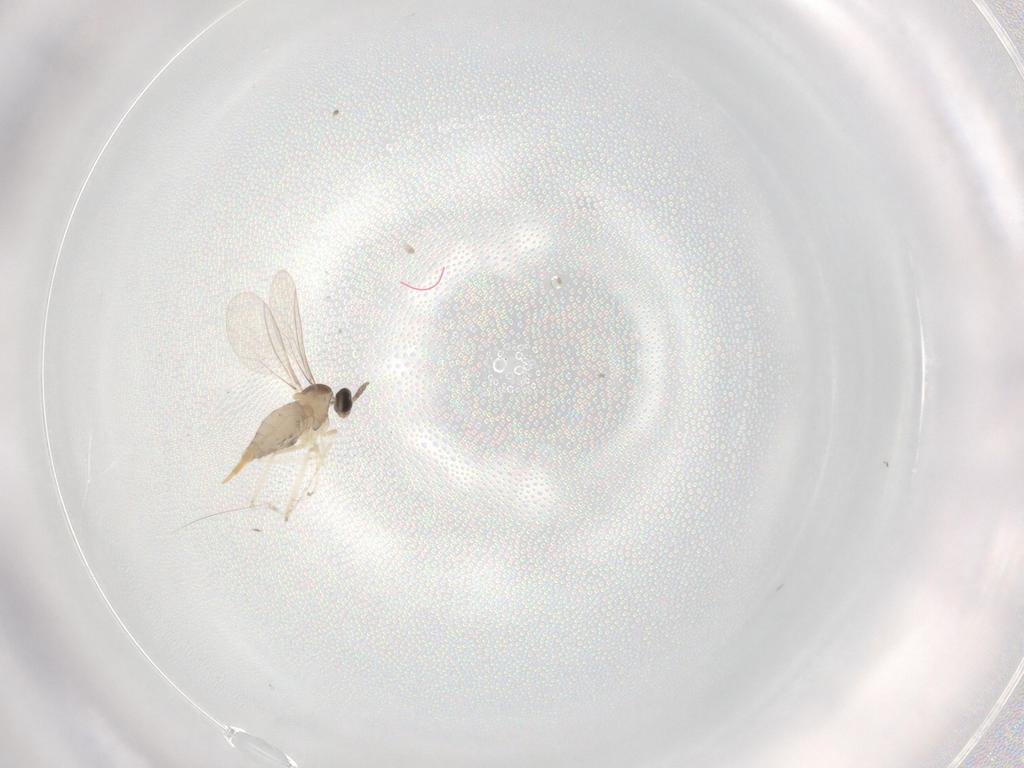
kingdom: Animalia
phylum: Arthropoda
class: Insecta
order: Diptera
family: Cecidomyiidae
